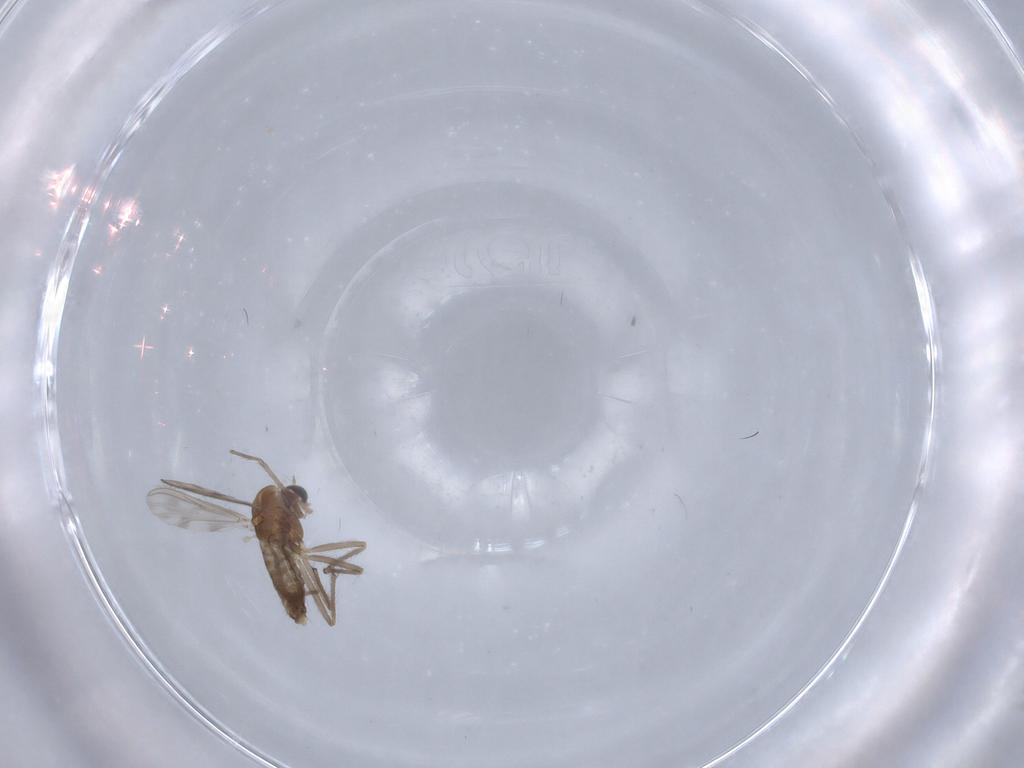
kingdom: Animalia
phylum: Arthropoda
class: Insecta
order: Diptera
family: Chironomidae
